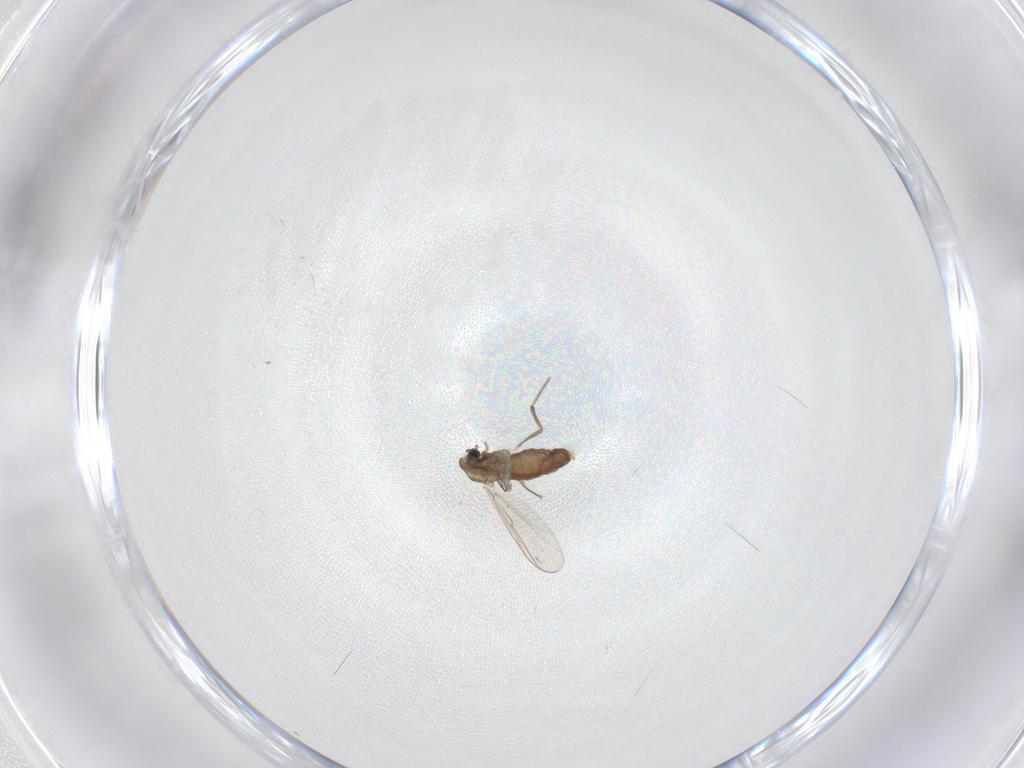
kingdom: Animalia
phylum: Arthropoda
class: Insecta
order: Diptera
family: Chironomidae
